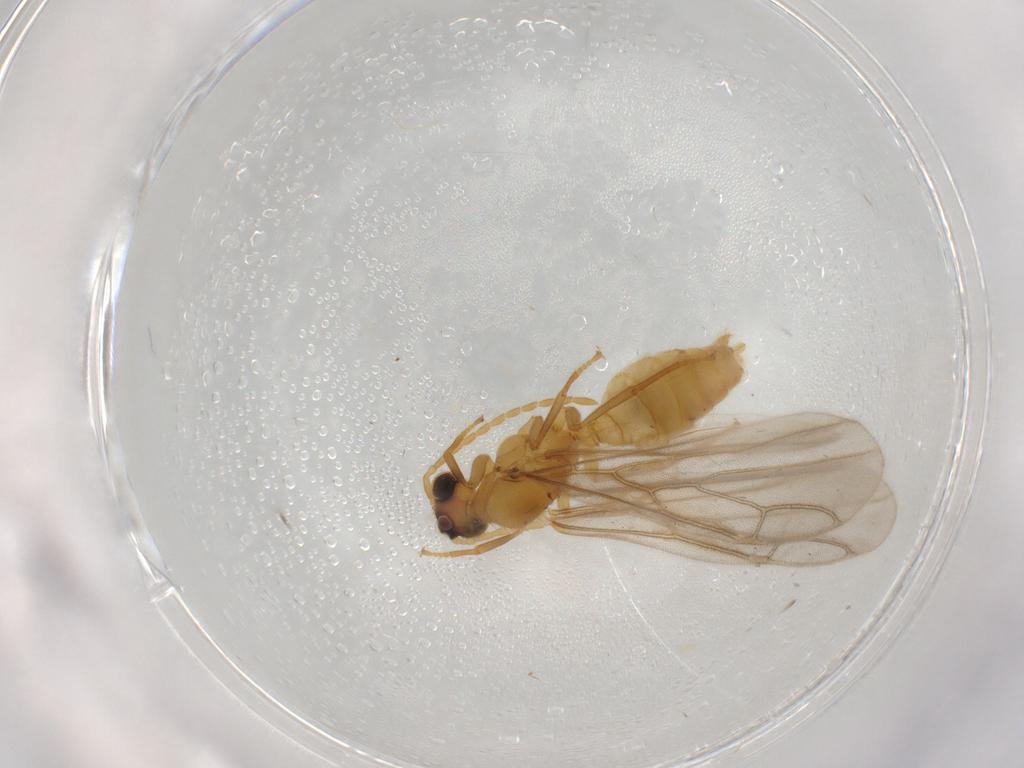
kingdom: Animalia
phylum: Arthropoda
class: Insecta
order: Hymenoptera
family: Formicidae
